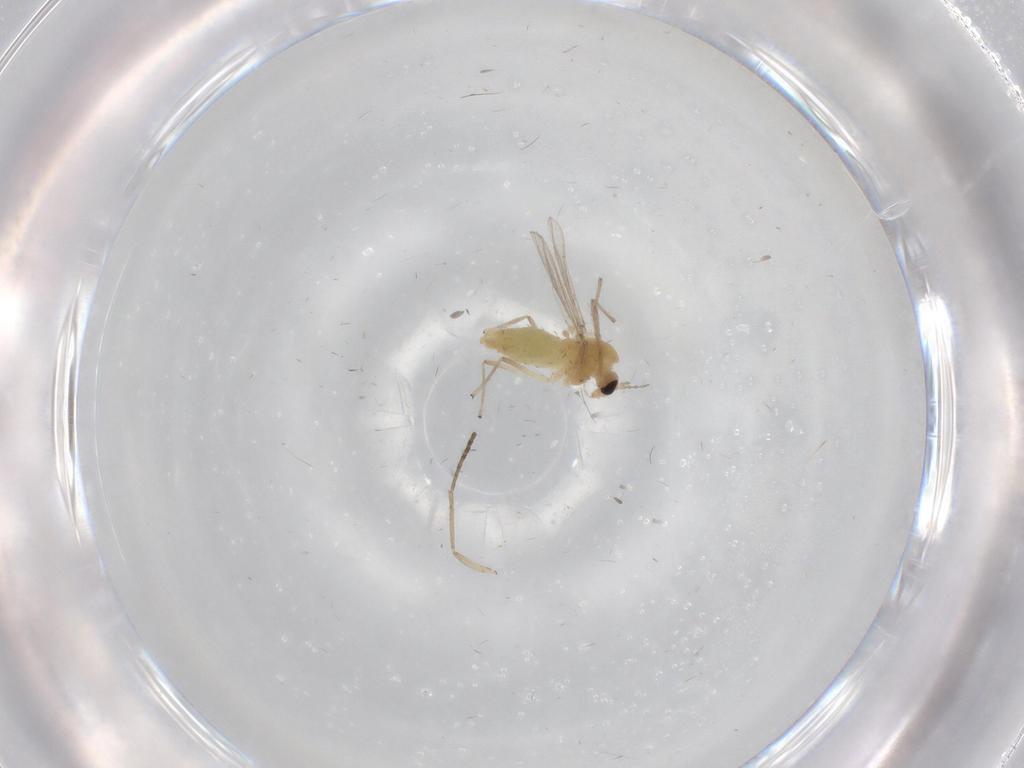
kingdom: Animalia
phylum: Arthropoda
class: Insecta
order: Diptera
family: Chironomidae
